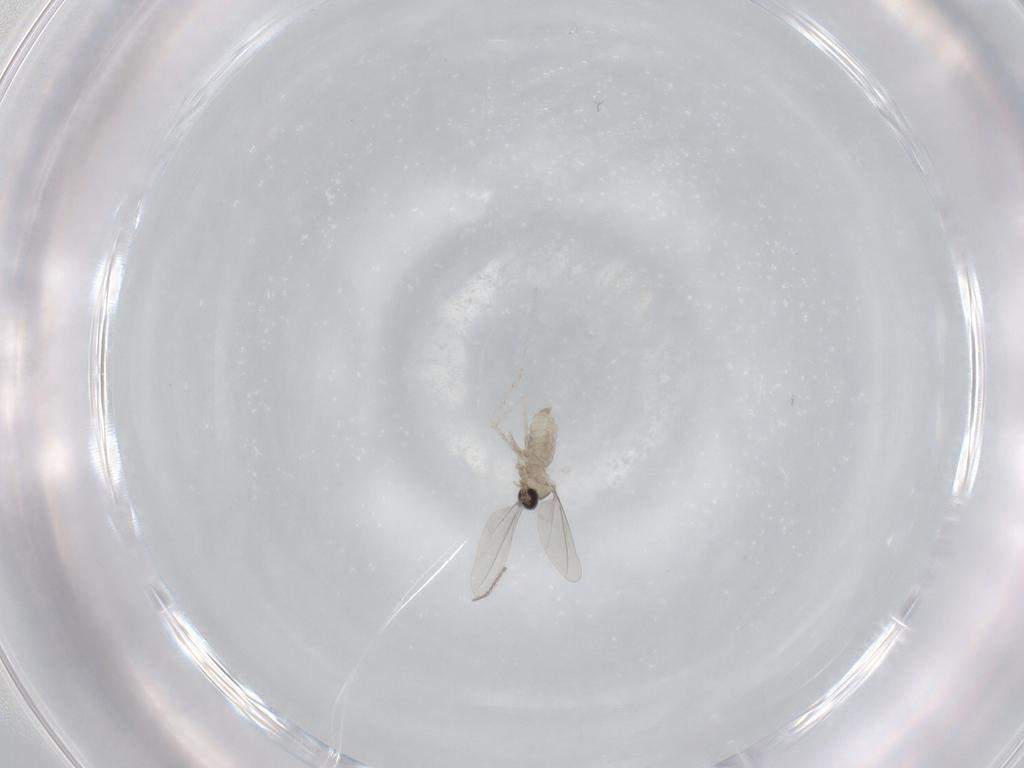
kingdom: Animalia
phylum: Arthropoda
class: Insecta
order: Diptera
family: Cecidomyiidae
